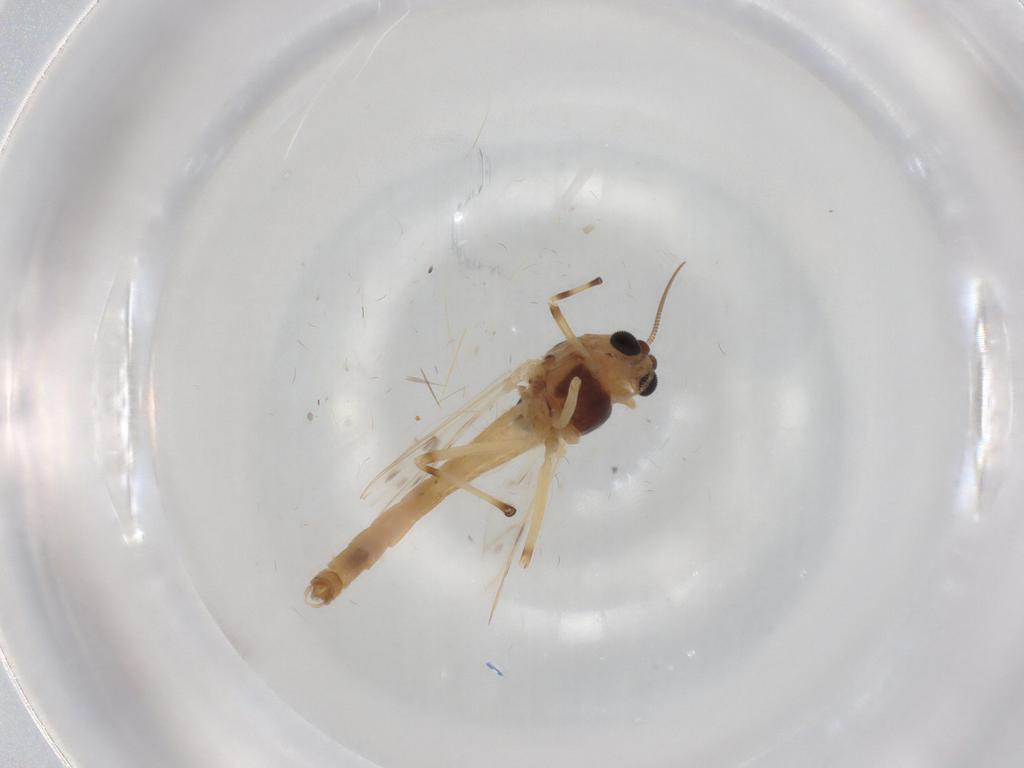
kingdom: Animalia
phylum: Arthropoda
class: Insecta
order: Diptera
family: Chironomidae
